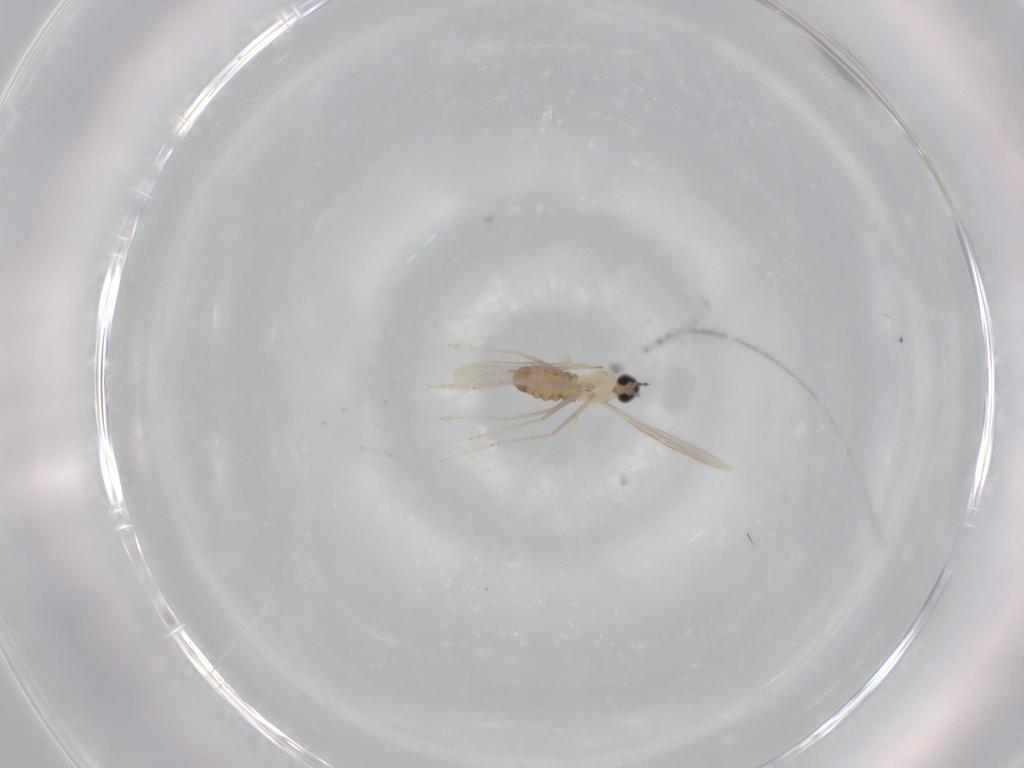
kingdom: Animalia
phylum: Arthropoda
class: Insecta
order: Diptera
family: Cecidomyiidae
